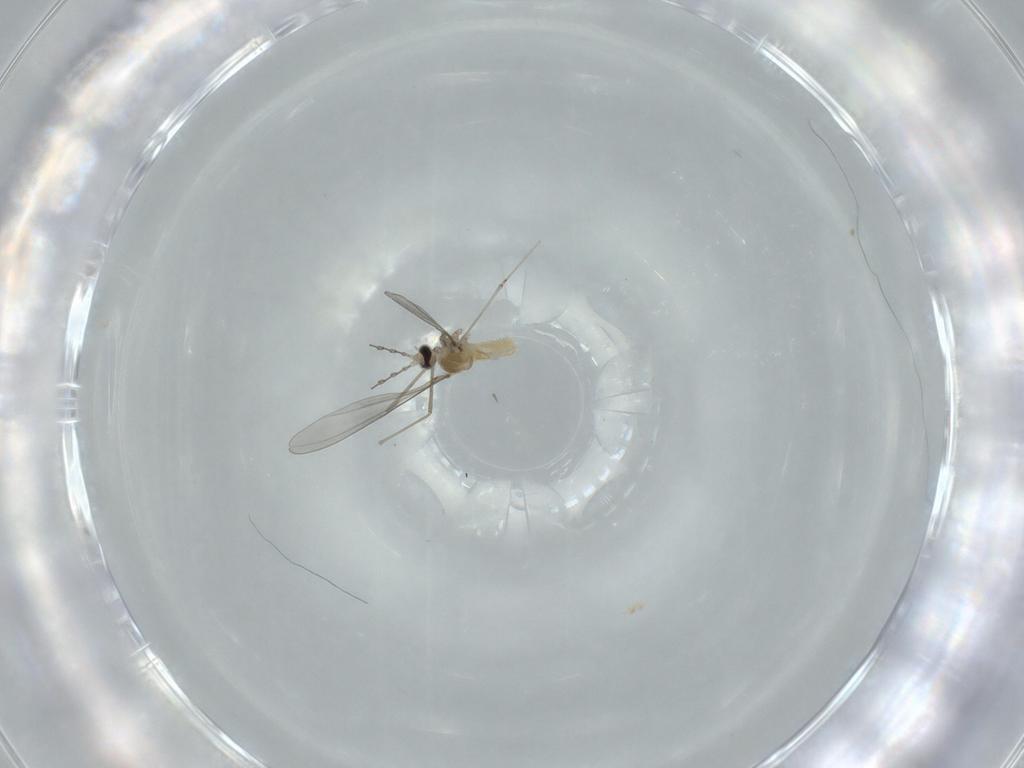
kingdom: Animalia
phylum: Arthropoda
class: Insecta
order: Diptera
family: Cecidomyiidae
